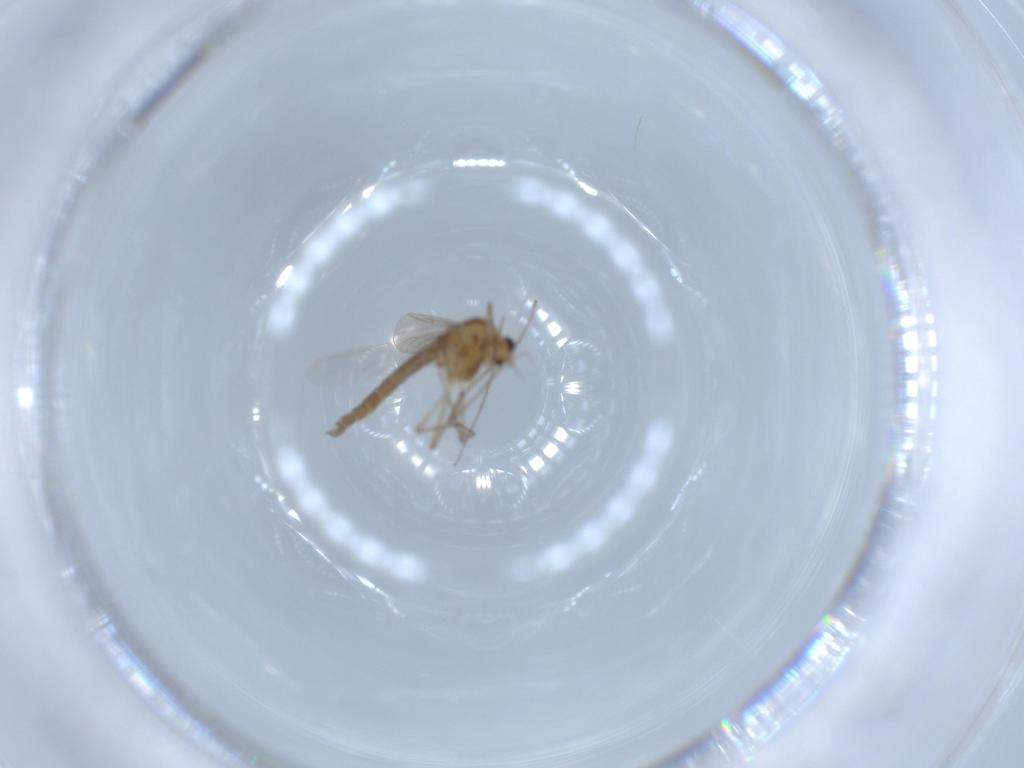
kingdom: Animalia
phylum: Arthropoda
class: Insecta
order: Diptera
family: Chironomidae
